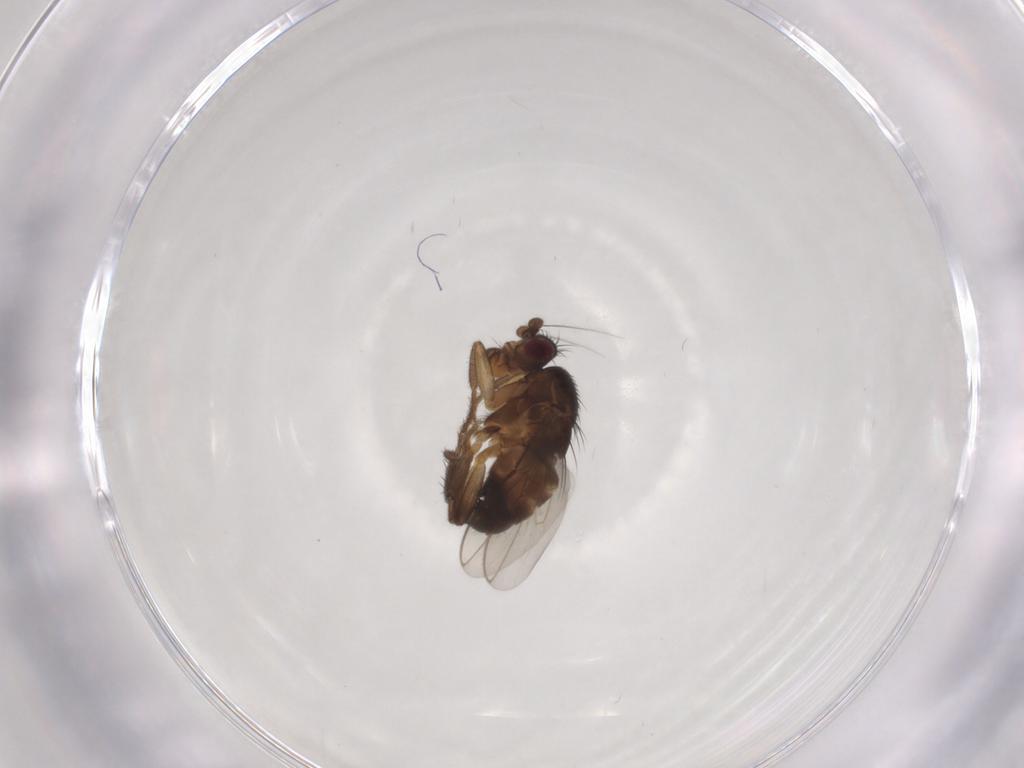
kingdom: Animalia
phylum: Arthropoda
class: Insecta
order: Diptera
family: Sphaeroceridae
